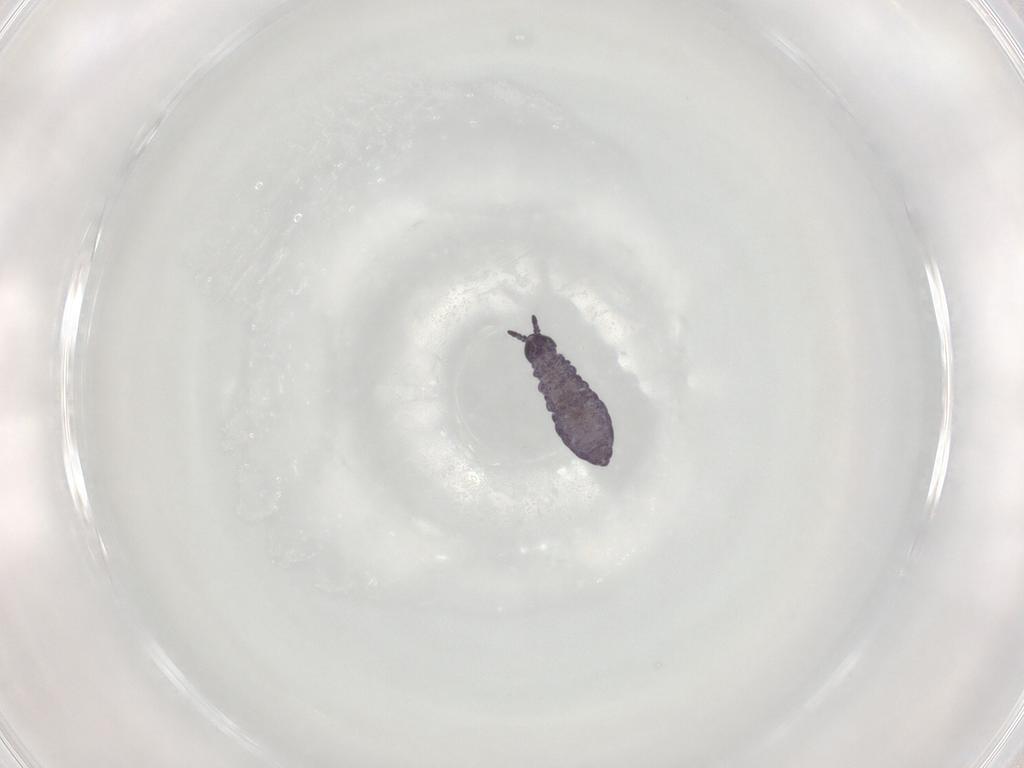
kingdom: Animalia
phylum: Arthropoda
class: Collembola
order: Poduromorpha
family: Brachystomellidae
